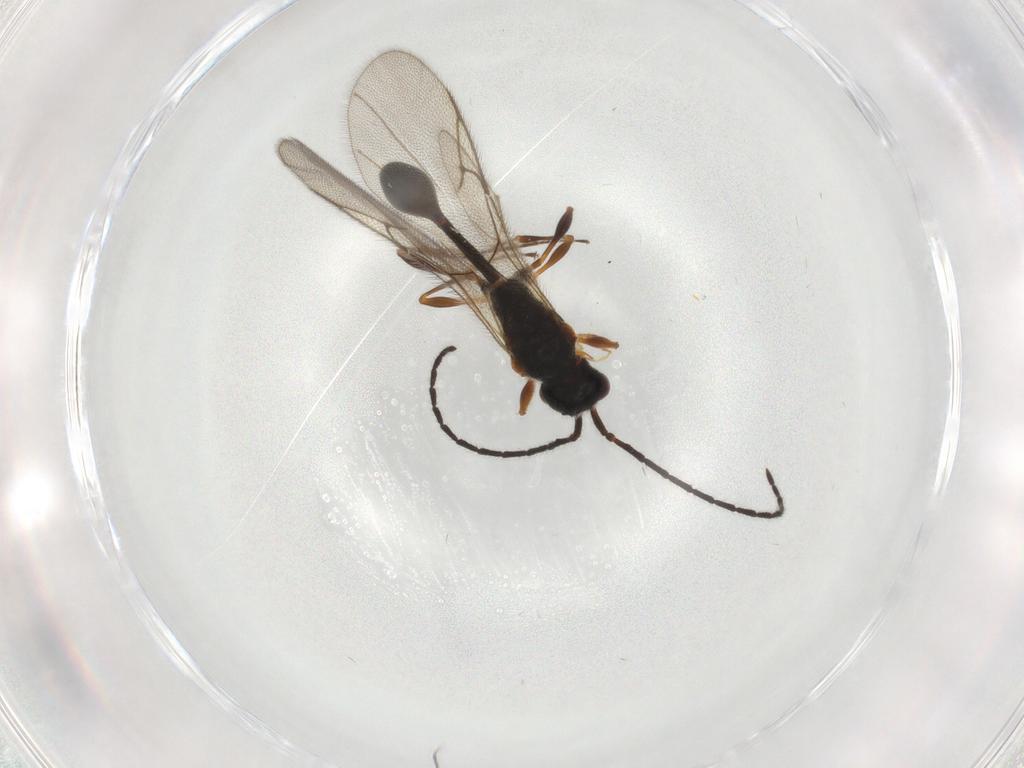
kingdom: Animalia
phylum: Arthropoda
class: Insecta
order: Hymenoptera
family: Diapriidae
